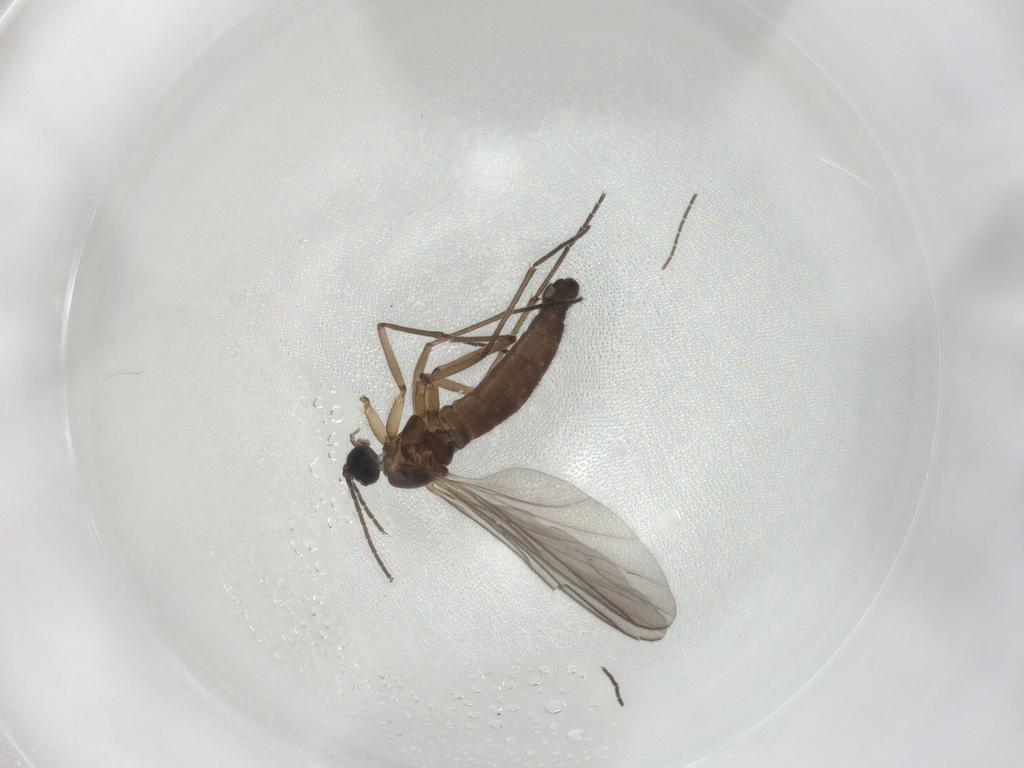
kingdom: Animalia
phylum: Arthropoda
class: Insecta
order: Diptera
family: Sciaridae
